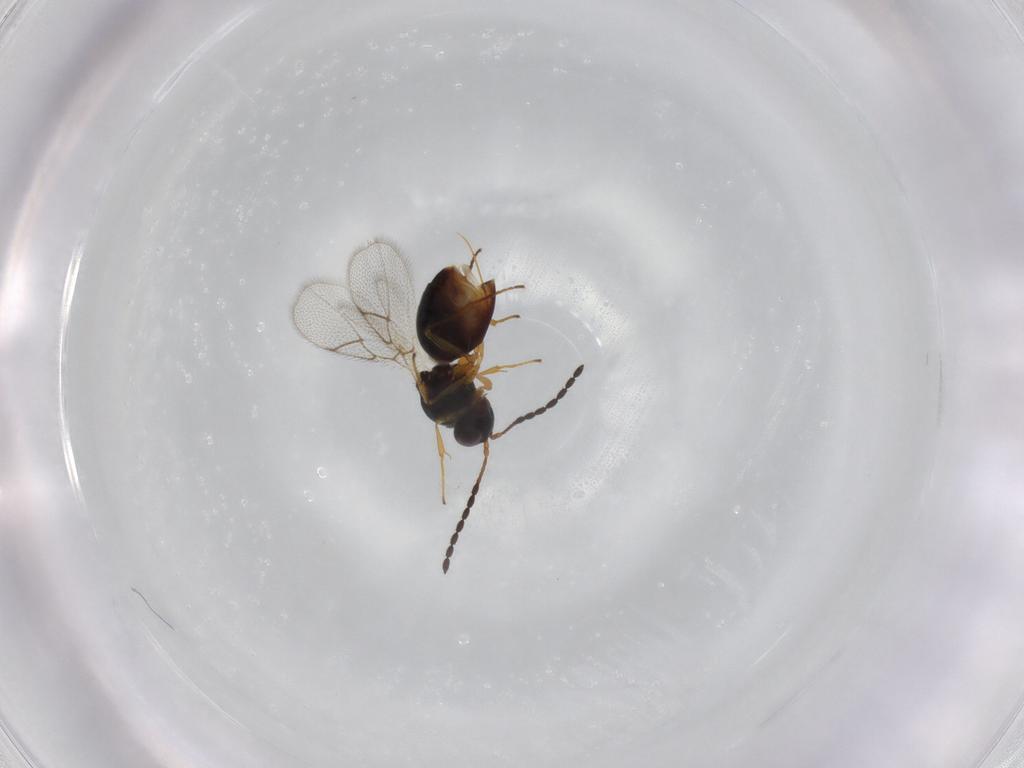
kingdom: Animalia
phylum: Arthropoda
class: Insecta
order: Hymenoptera
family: Figitidae
